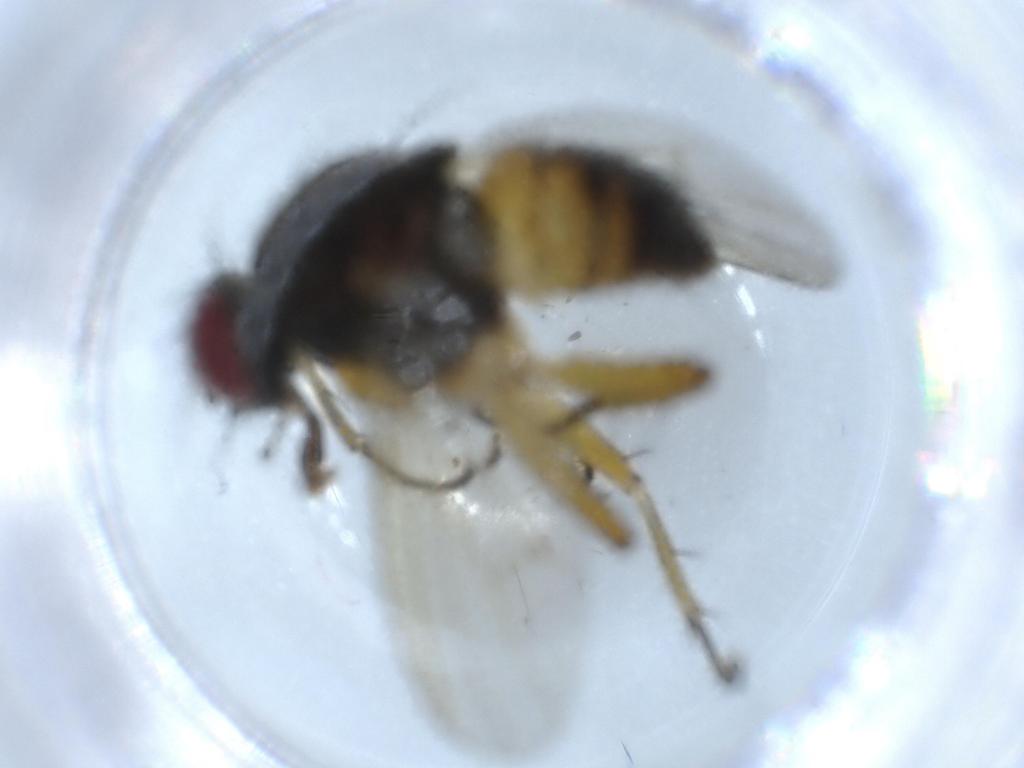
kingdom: Animalia
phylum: Arthropoda
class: Insecta
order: Diptera
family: Muscidae
